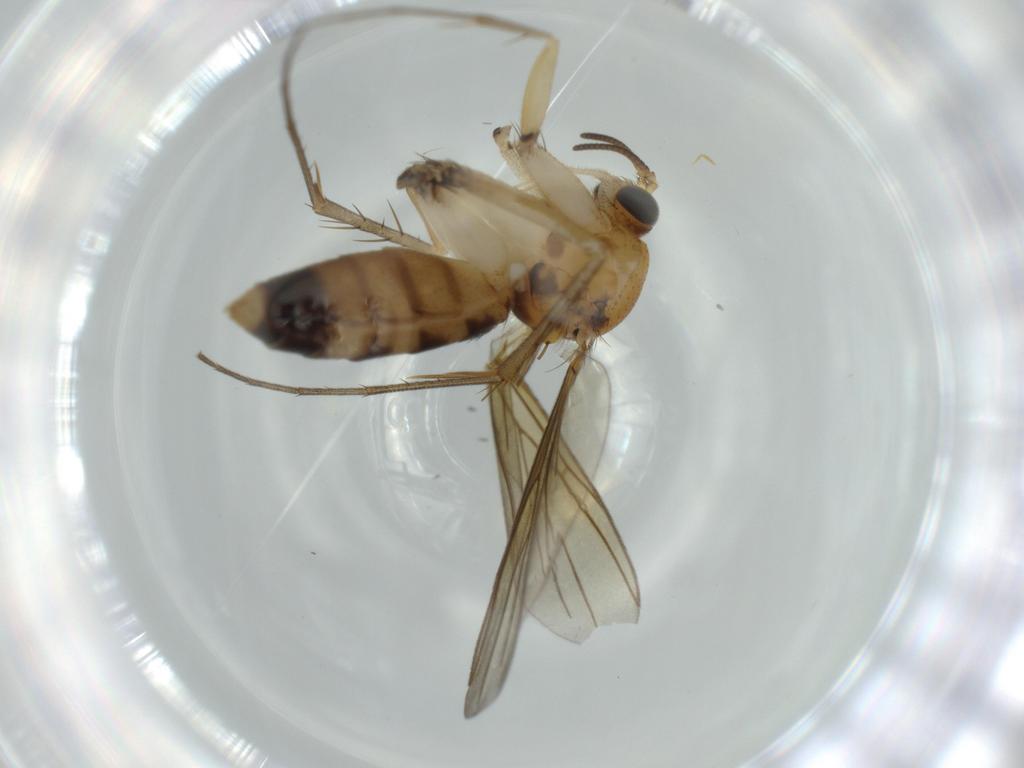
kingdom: Animalia
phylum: Arthropoda
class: Insecta
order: Diptera
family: Mycetophilidae
